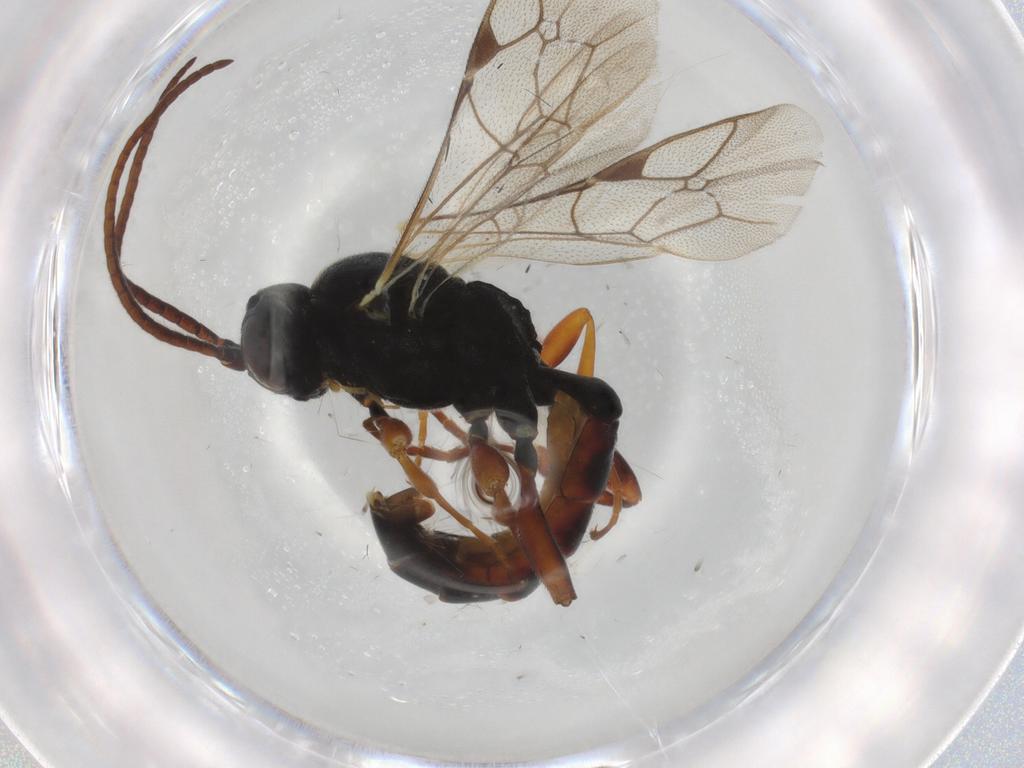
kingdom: Animalia
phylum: Arthropoda
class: Insecta
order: Hymenoptera
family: Ichneumonidae
